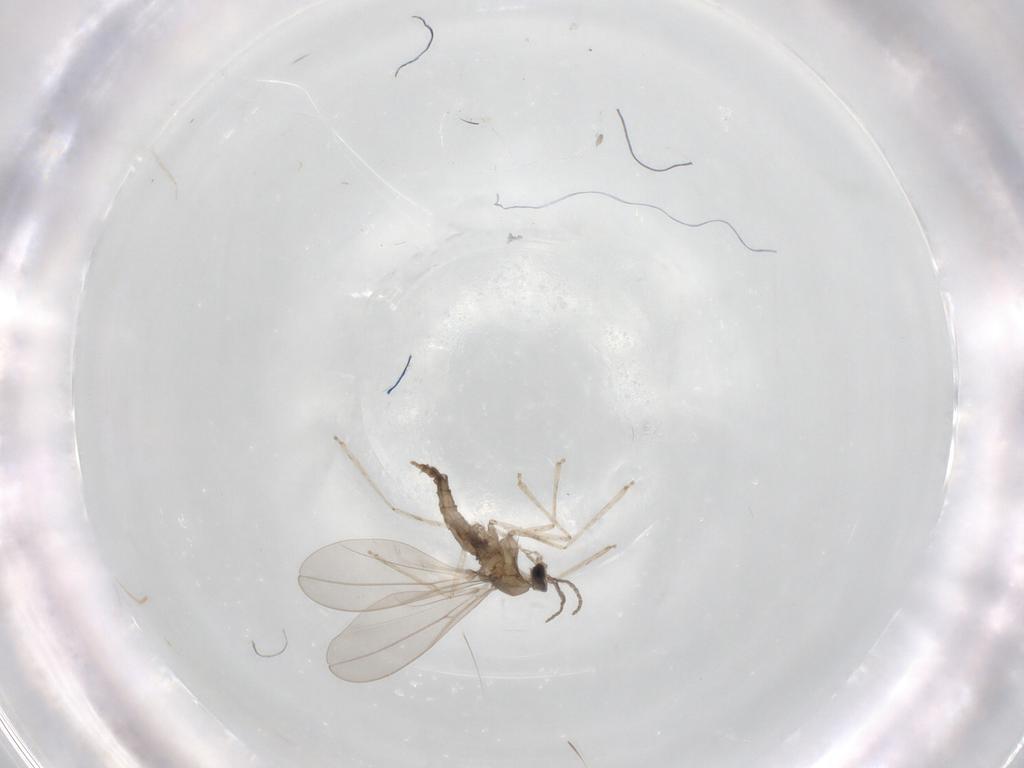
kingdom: Animalia
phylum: Arthropoda
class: Insecta
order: Diptera
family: Cecidomyiidae
